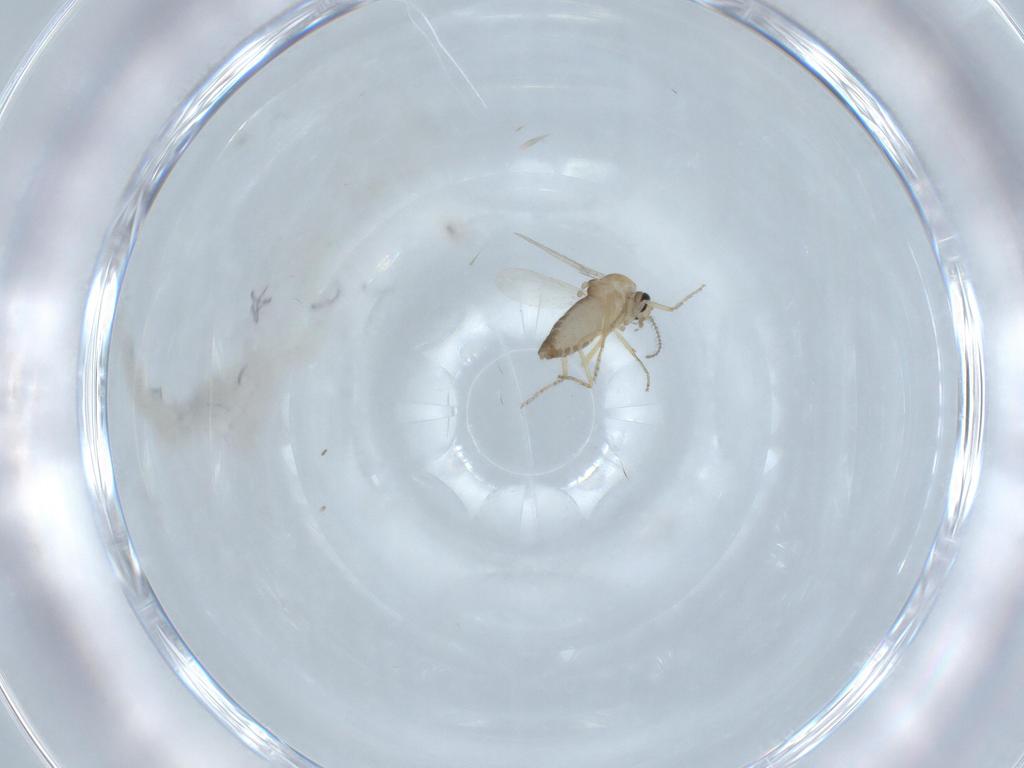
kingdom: Animalia
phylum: Arthropoda
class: Insecta
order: Diptera
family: Ceratopogonidae
